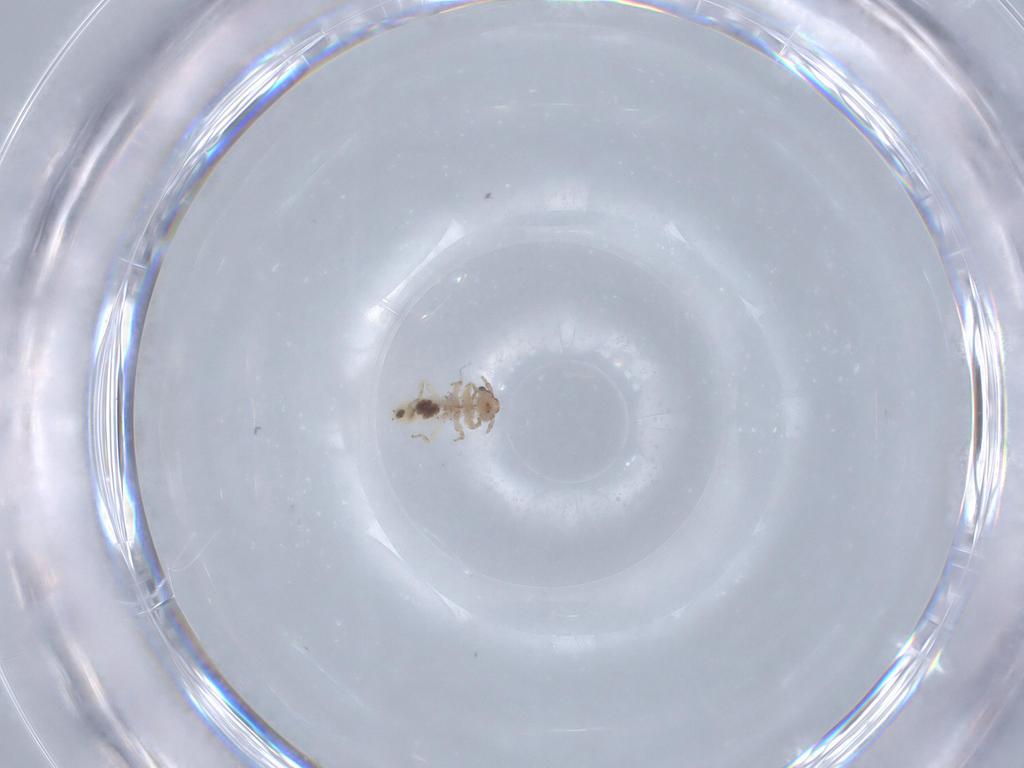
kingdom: Animalia
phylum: Arthropoda
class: Insecta
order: Psocodea
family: Lepidopsocidae
